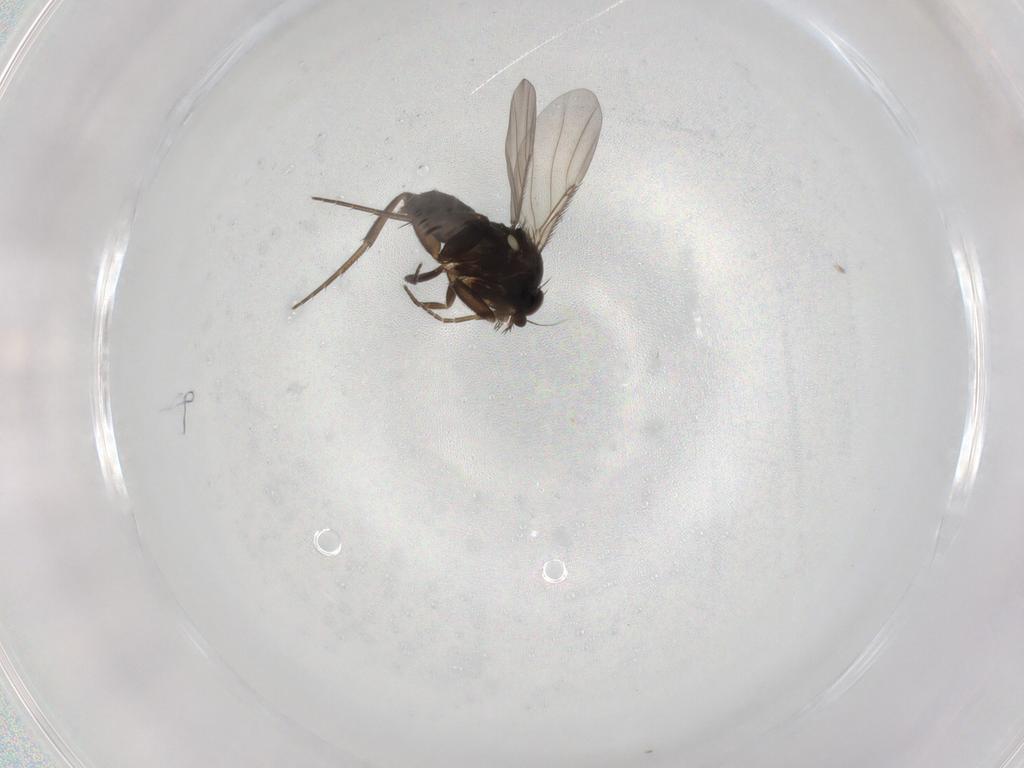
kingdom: Animalia
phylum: Arthropoda
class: Insecta
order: Diptera
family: Phoridae
